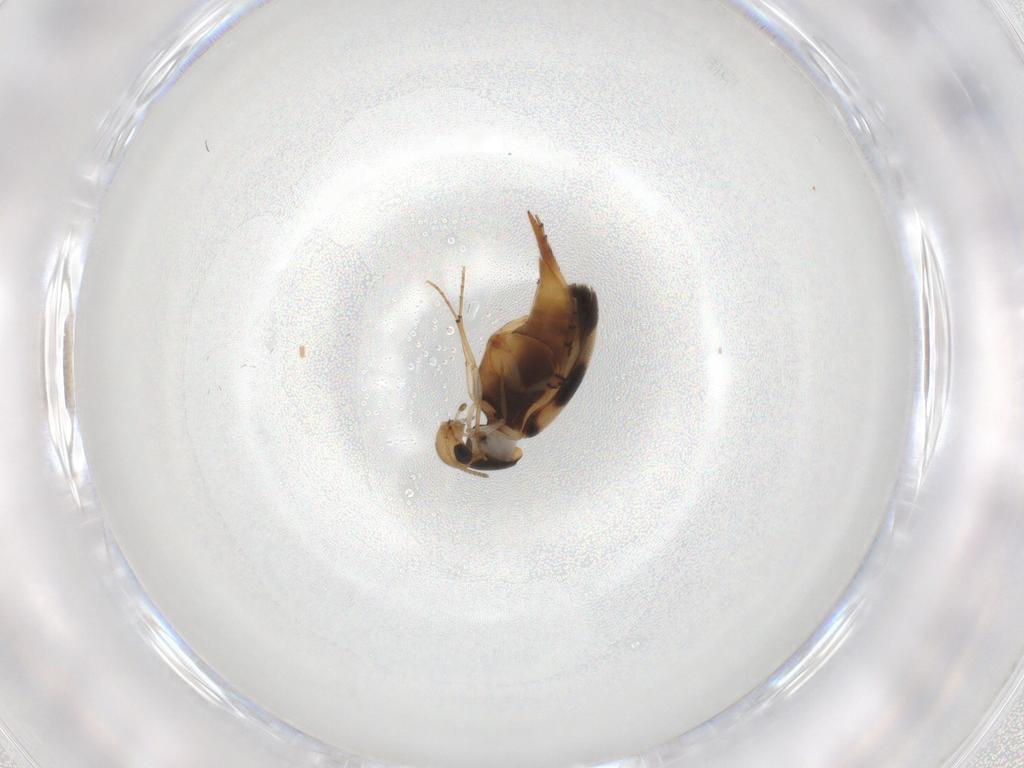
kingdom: Animalia
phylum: Arthropoda
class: Insecta
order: Coleoptera
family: Mordellidae
